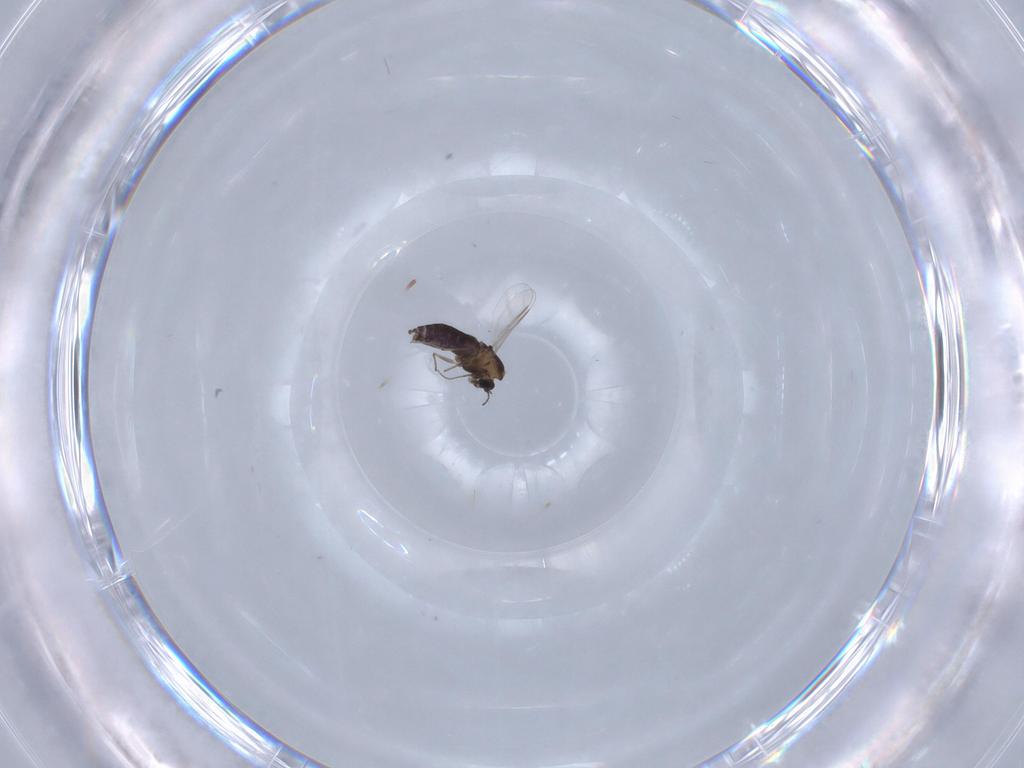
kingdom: Animalia
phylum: Arthropoda
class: Insecta
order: Diptera
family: Chironomidae
